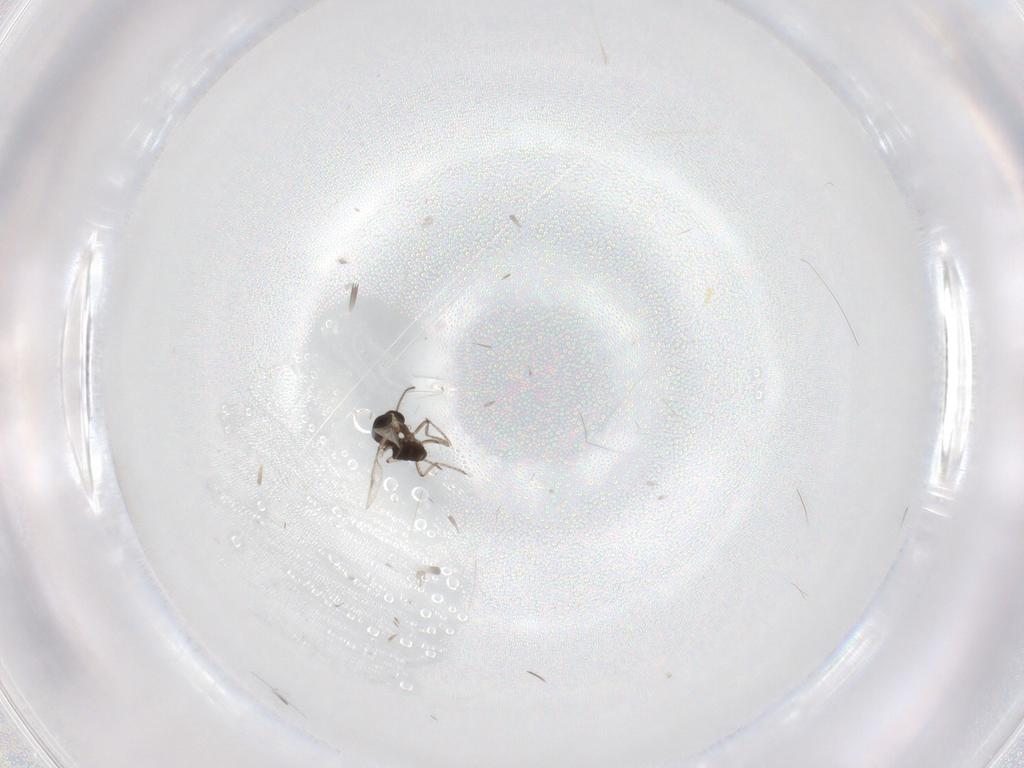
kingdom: Animalia
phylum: Arthropoda
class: Insecta
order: Diptera
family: Ceratopogonidae
